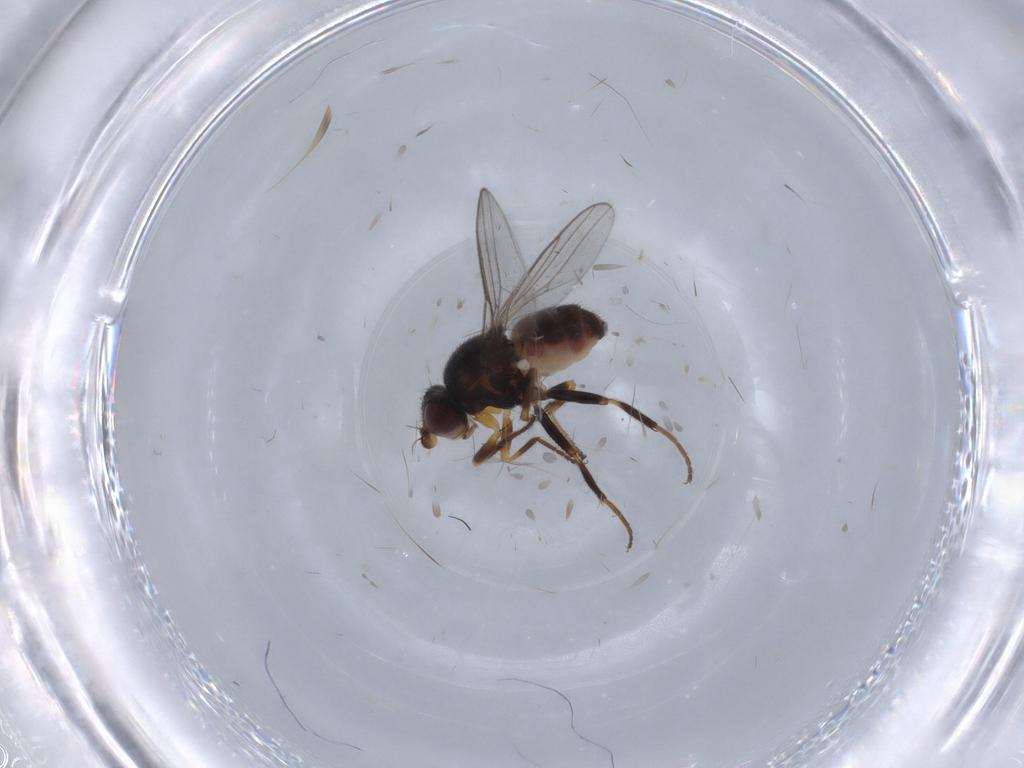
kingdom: Animalia
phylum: Arthropoda
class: Insecta
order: Diptera
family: Chloropidae
